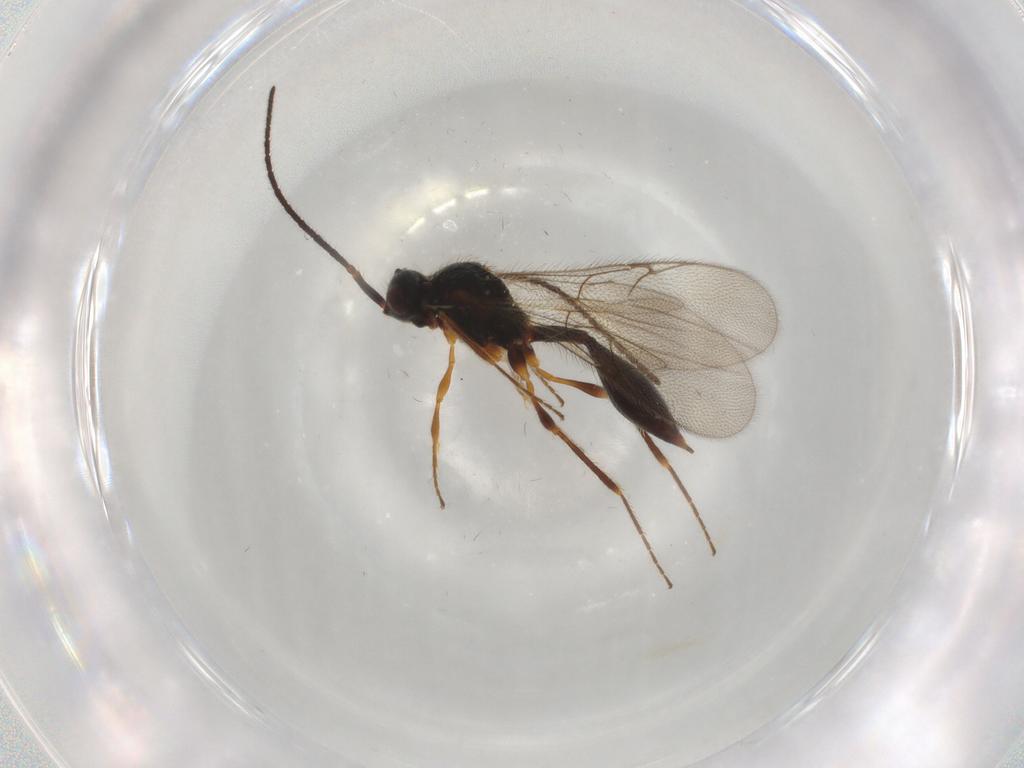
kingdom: Animalia
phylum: Arthropoda
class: Insecta
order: Hymenoptera
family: Diapriidae
